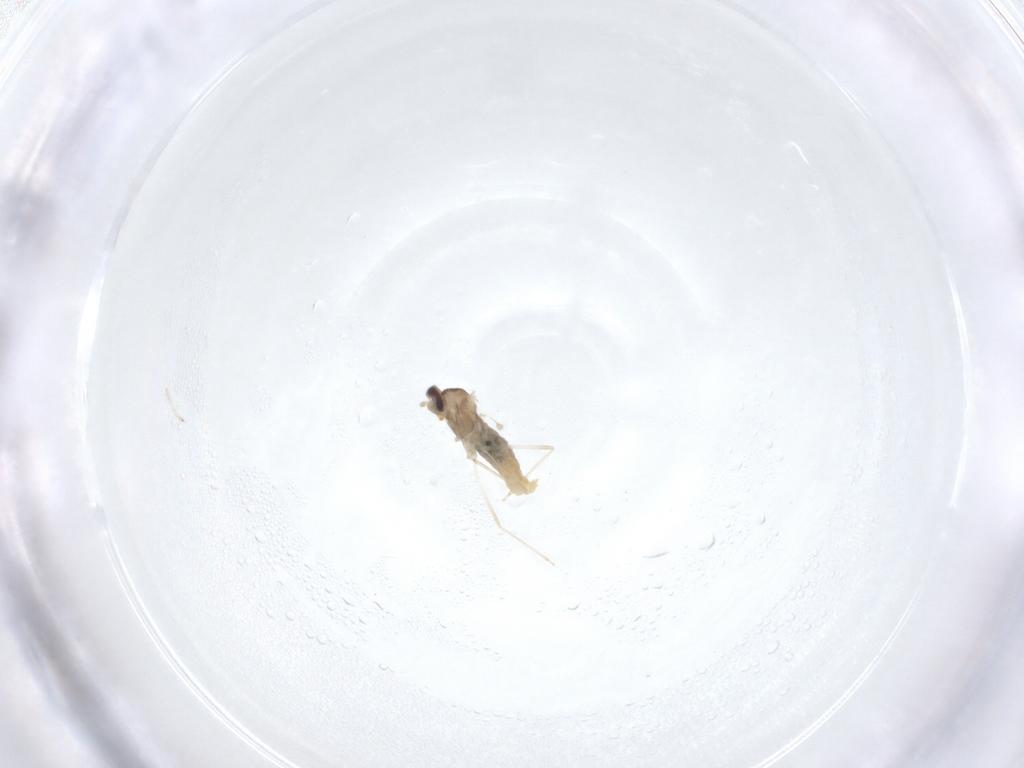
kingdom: Animalia
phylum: Arthropoda
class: Insecta
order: Diptera
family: Cecidomyiidae
